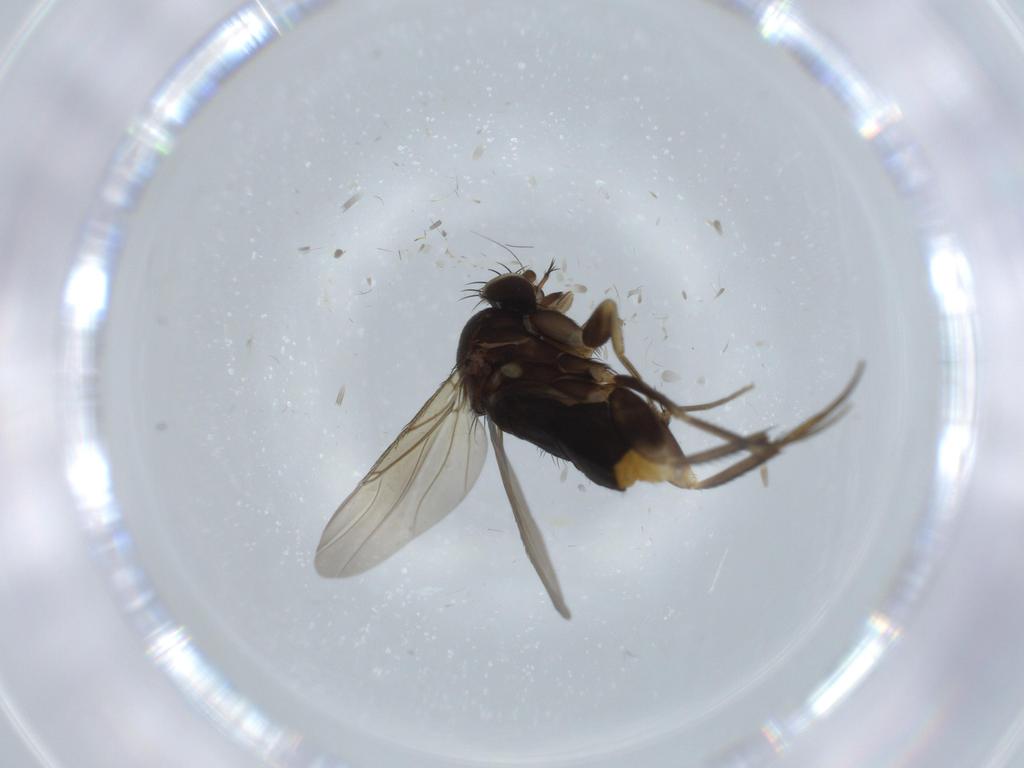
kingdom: Animalia
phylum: Arthropoda
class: Insecta
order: Diptera
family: Phoridae
